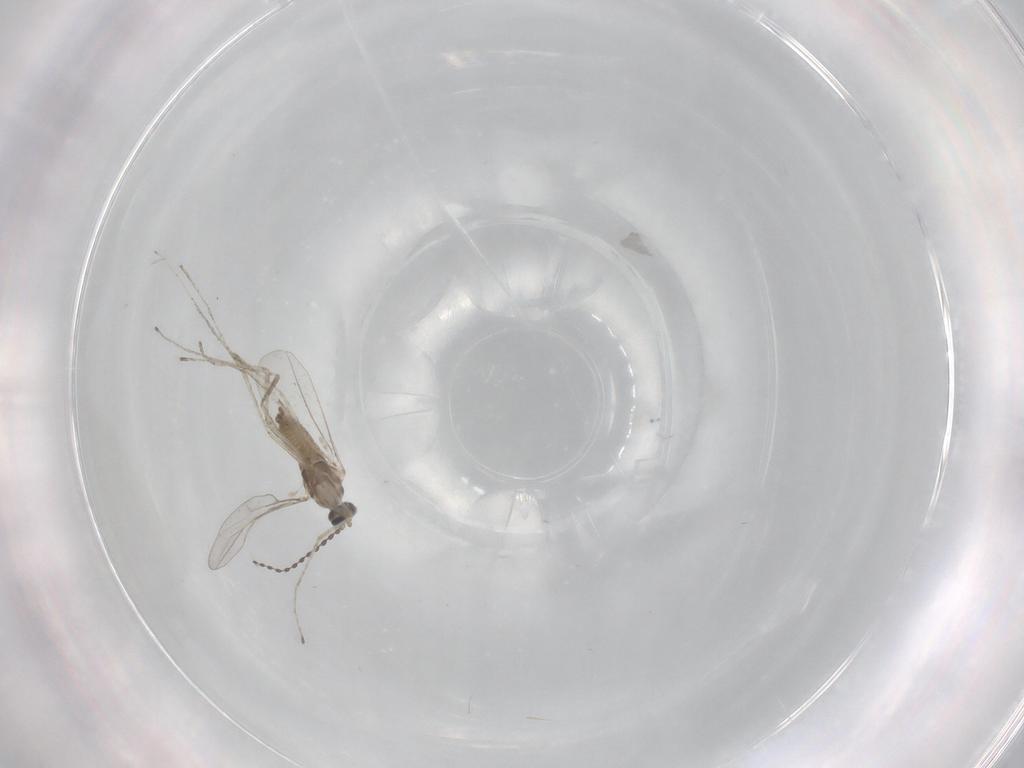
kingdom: Animalia
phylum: Arthropoda
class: Insecta
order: Diptera
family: Cecidomyiidae
